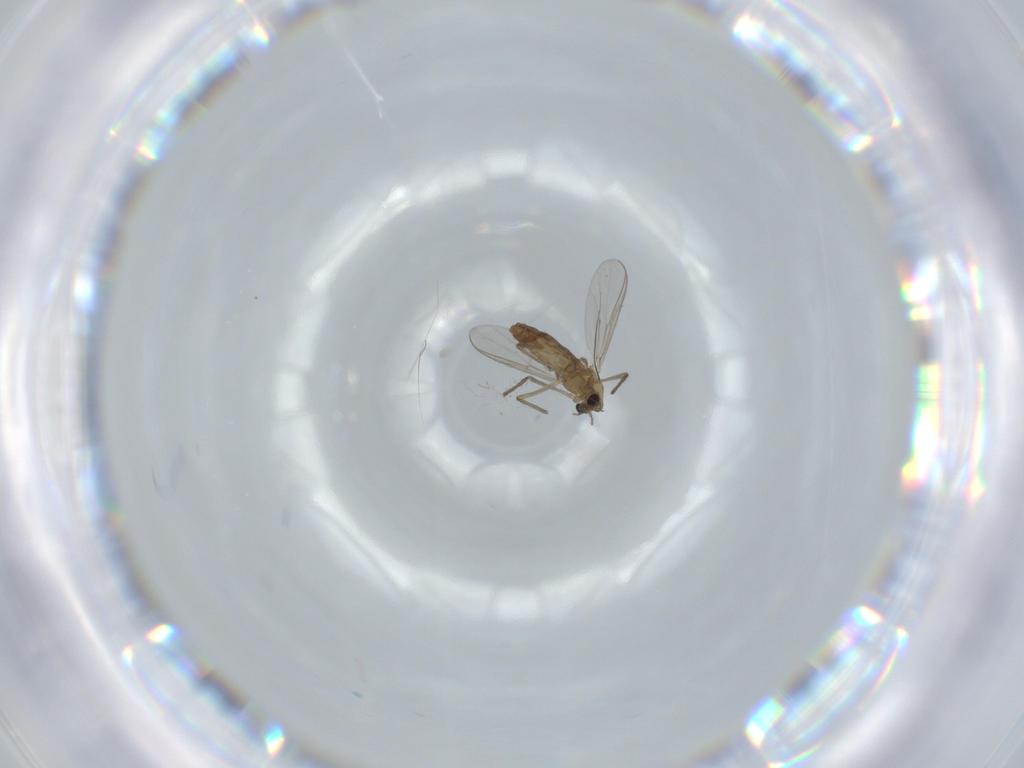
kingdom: Animalia
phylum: Arthropoda
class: Insecta
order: Diptera
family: Chironomidae
